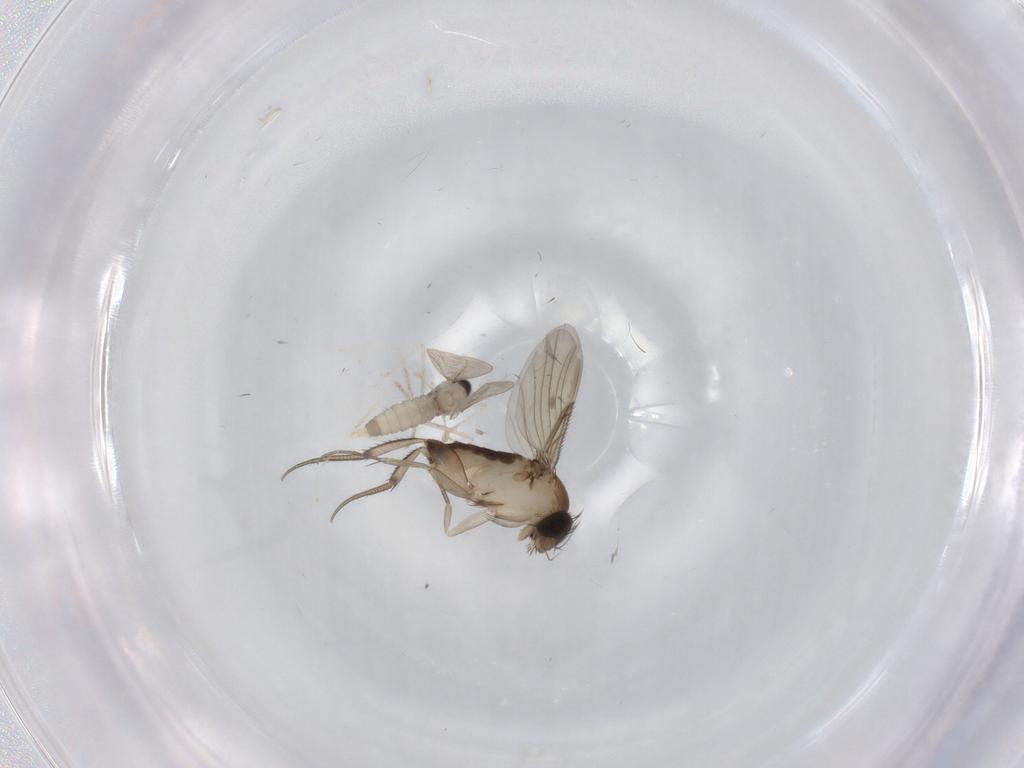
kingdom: Animalia
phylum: Arthropoda
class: Insecta
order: Diptera
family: Cecidomyiidae
